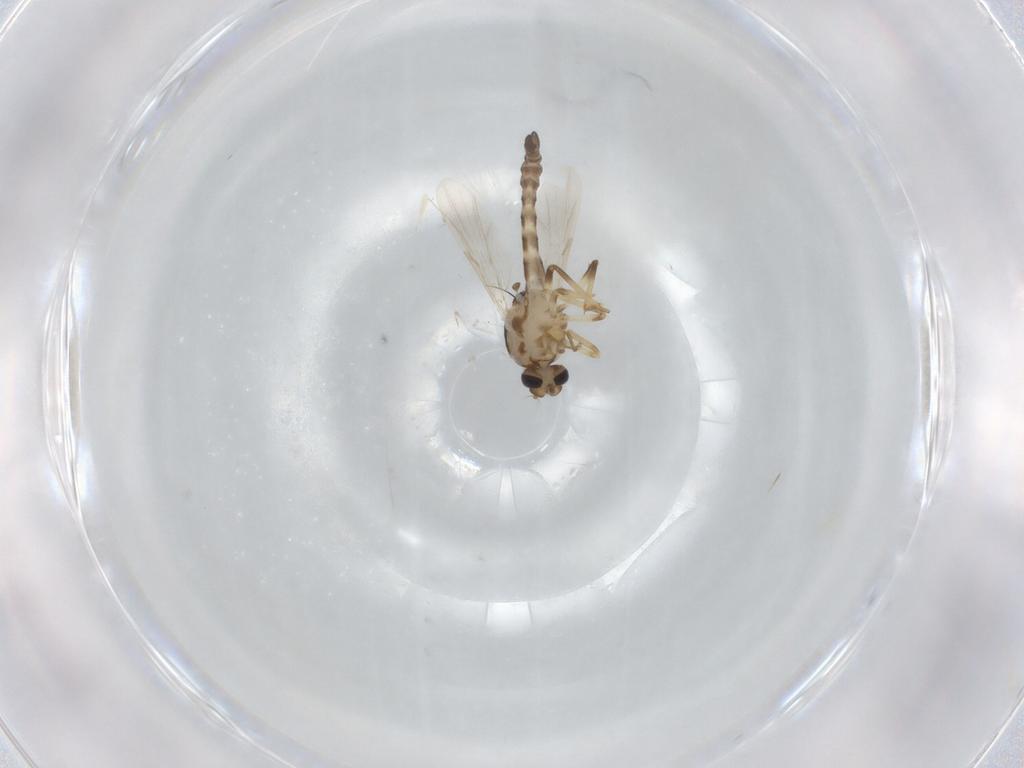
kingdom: Animalia
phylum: Arthropoda
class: Insecta
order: Diptera
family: Ceratopogonidae
